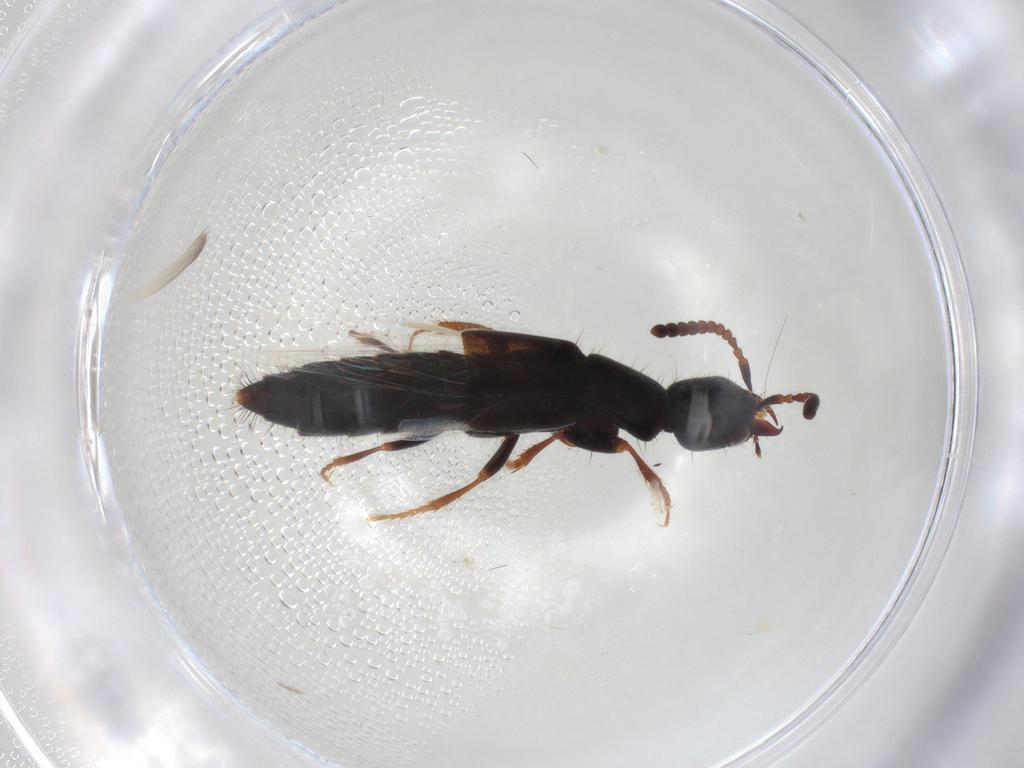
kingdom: Animalia
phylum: Arthropoda
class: Insecta
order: Coleoptera
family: Staphylinidae
